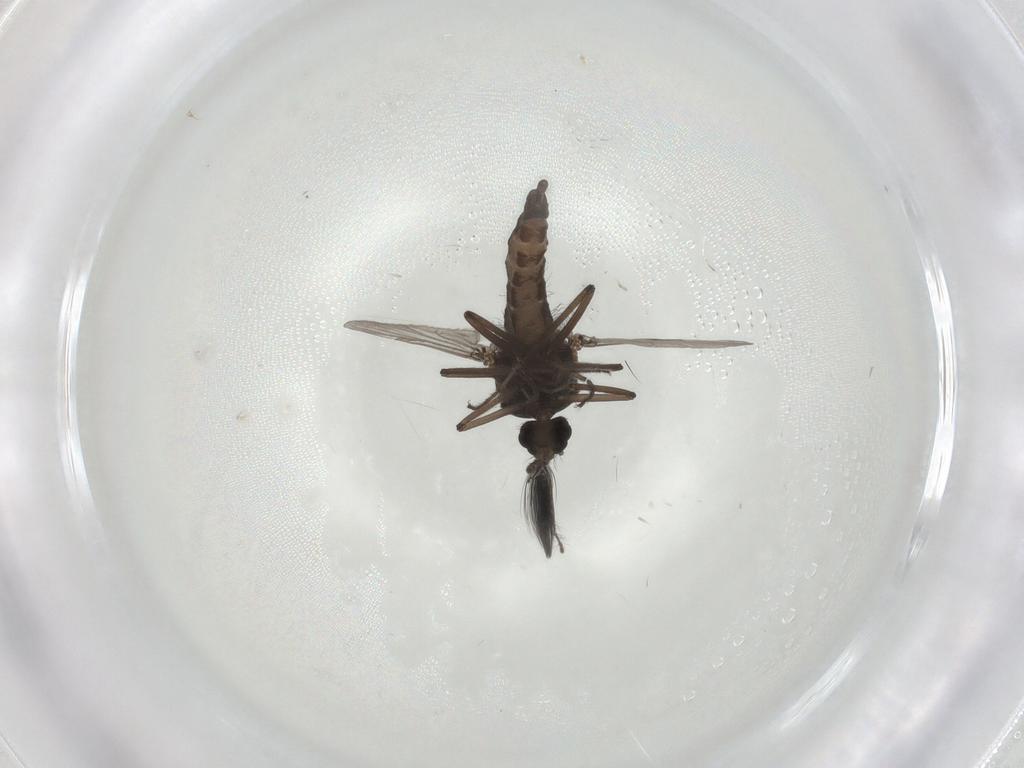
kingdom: Animalia
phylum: Arthropoda
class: Insecta
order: Diptera
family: Ceratopogonidae
